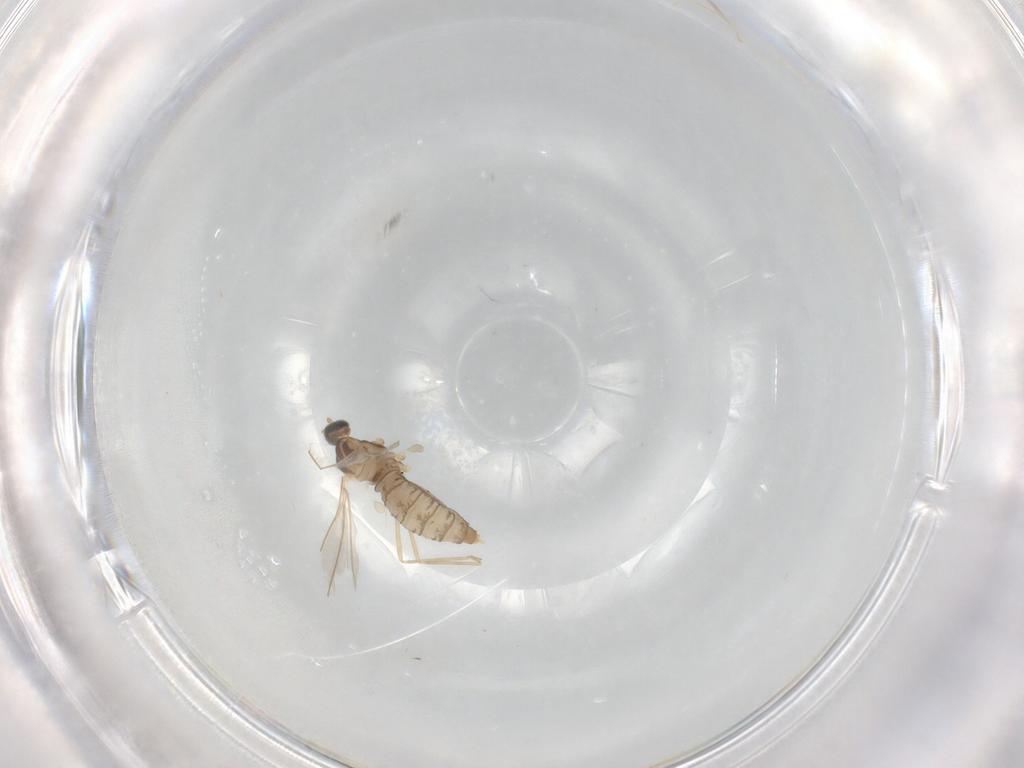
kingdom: Animalia
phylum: Arthropoda
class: Insecta
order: Diptera
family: Cecidomyiidae
